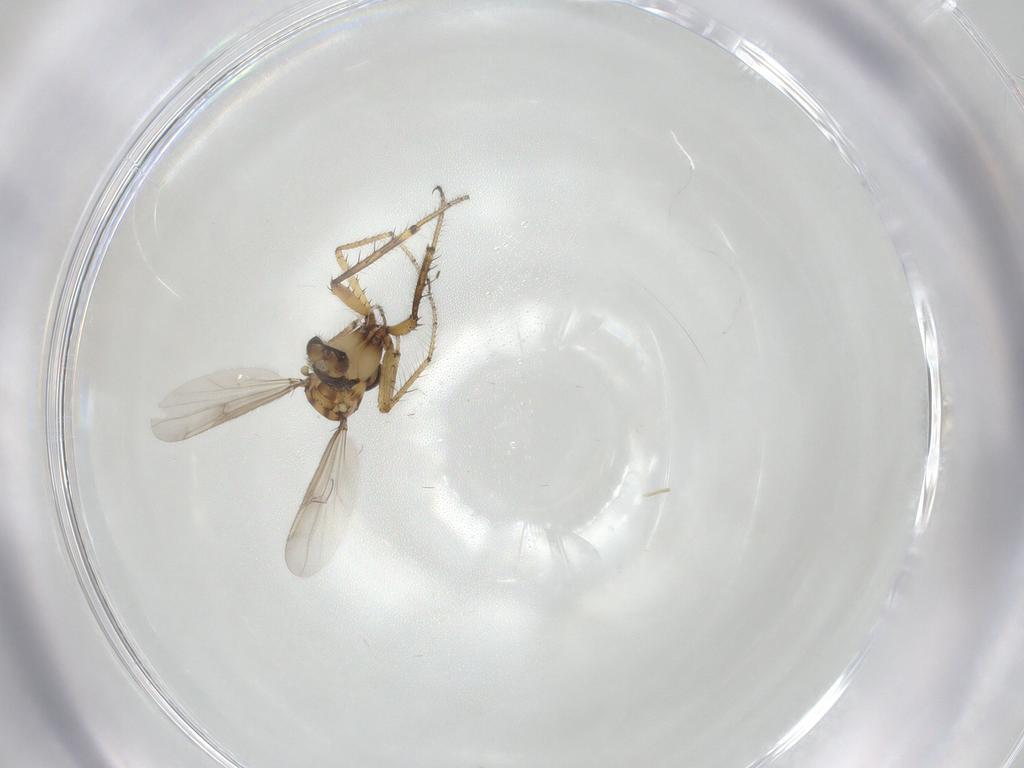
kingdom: Animalia
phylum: Arthropoda
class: Insecta
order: Diptera
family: Ceratopogonidae
